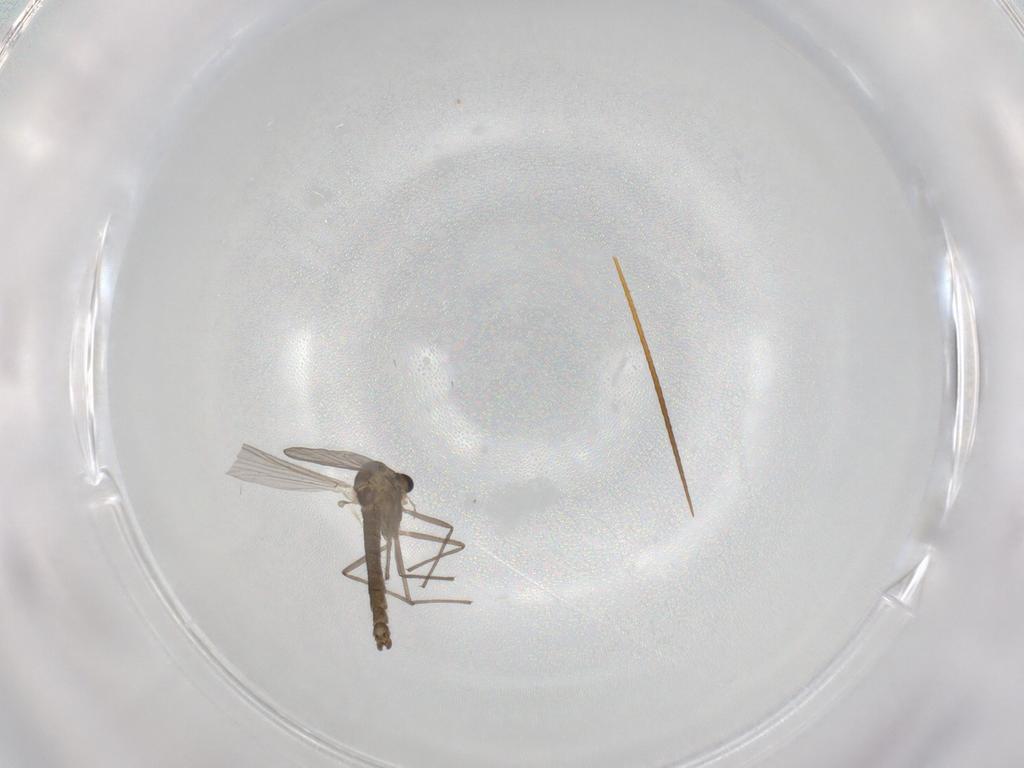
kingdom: Animalia
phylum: Arthropoda
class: Insecta
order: Diptera
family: Chironomidae
